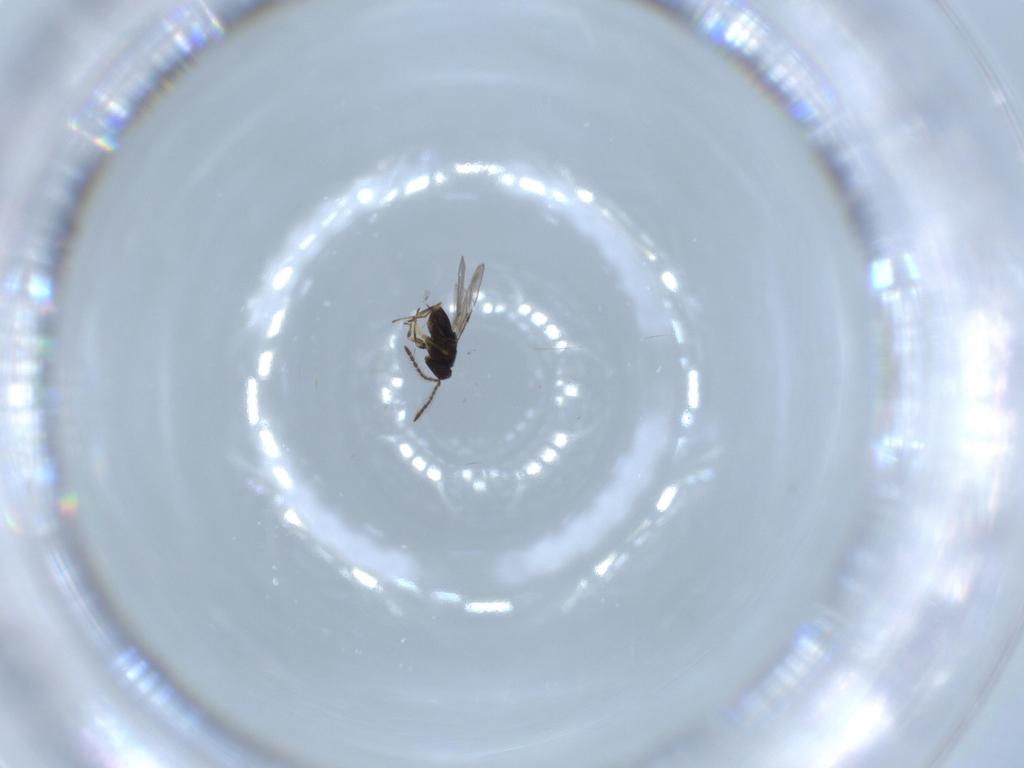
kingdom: Animalia
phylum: Arthropoda
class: Insecta
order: Hymenoptera
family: Encyrtidae
